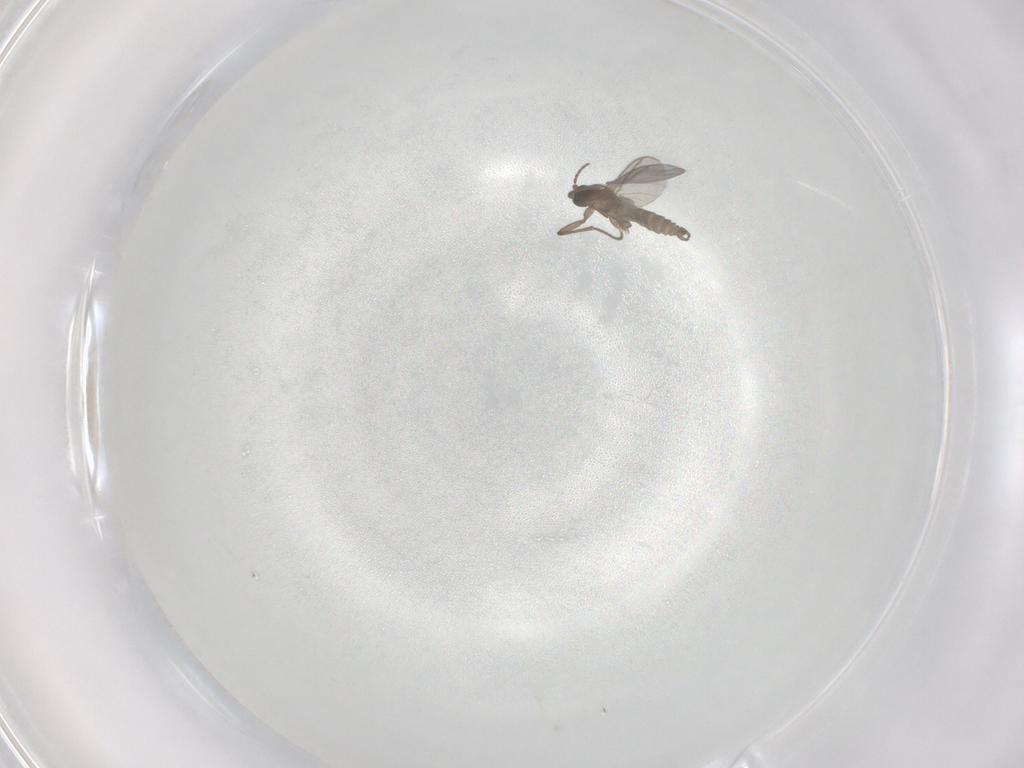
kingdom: Animalia
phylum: Arthropoda
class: Insecta
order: Diptera
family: Sciaridae
